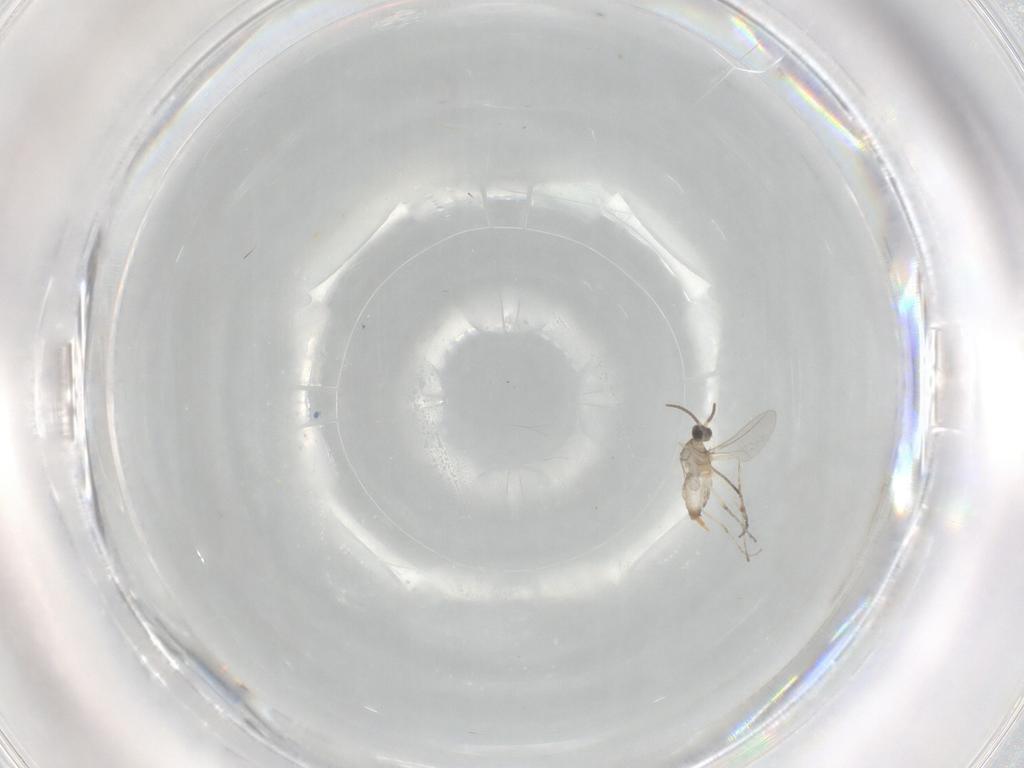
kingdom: Animalia
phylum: Arthropoda
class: Insecta
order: Diptera
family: Cecidomyiidae
